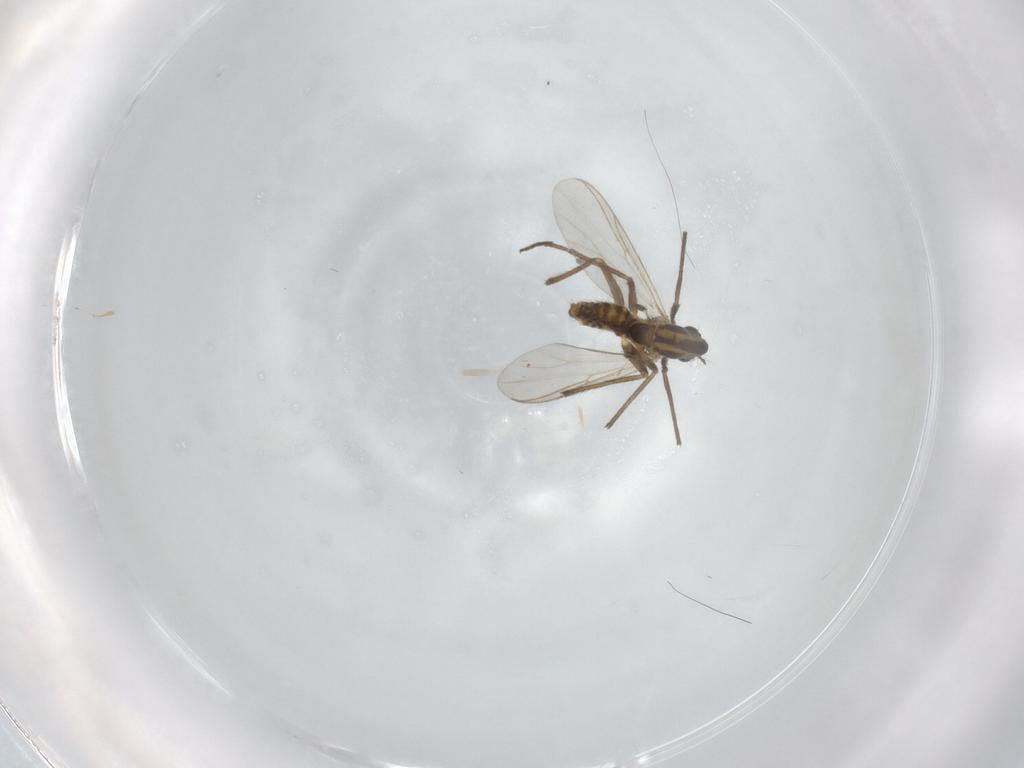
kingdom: Animalia
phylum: Arthropoda
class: Insecta
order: Diptera
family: Chironomidae
